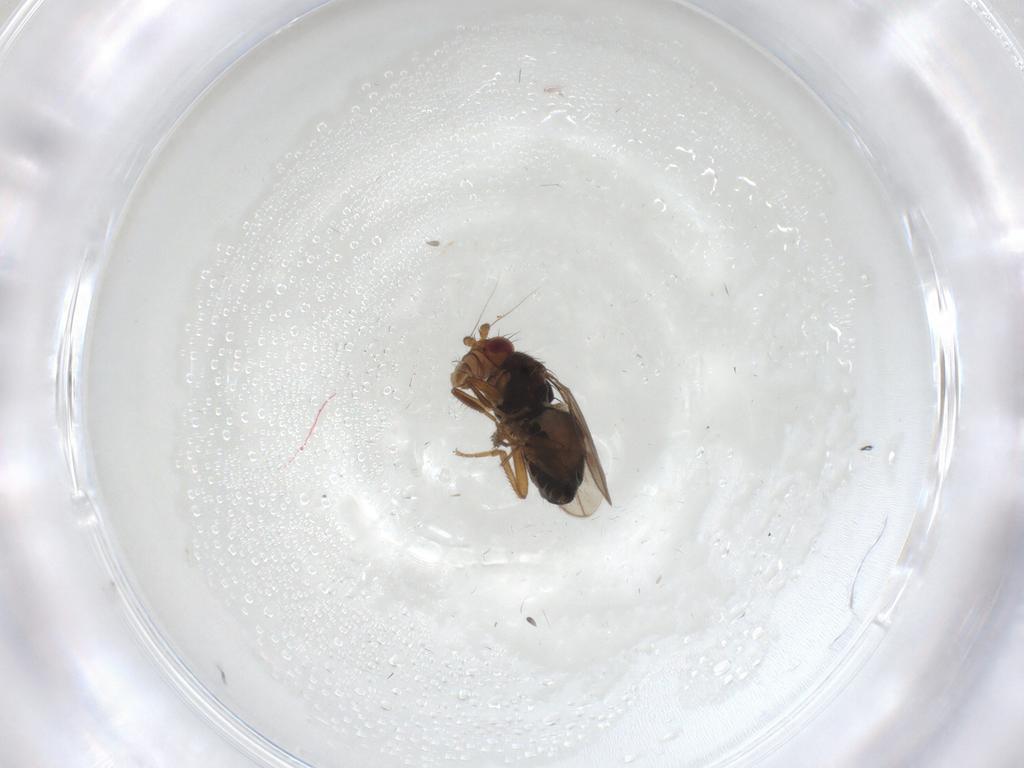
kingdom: Animalia
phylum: Arthropoda
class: Insecta
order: Diptera
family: Sphaeroceridae
